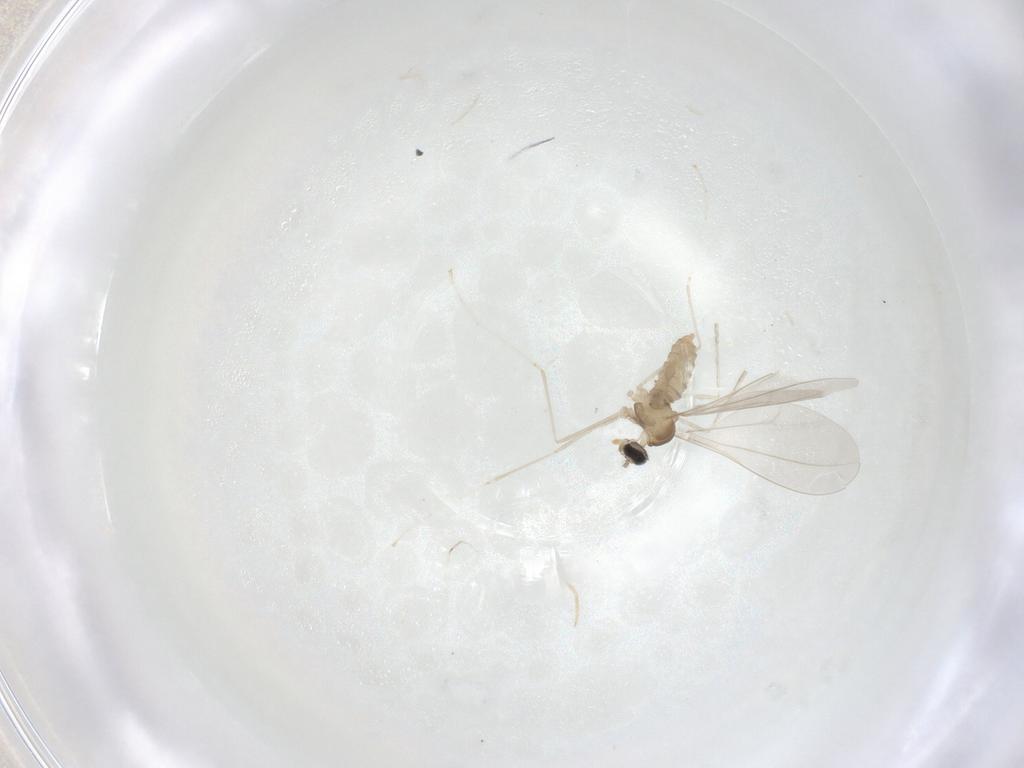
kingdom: Animalia
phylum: Arthropoda
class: Insecta
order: Diptera
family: Cecidomyiidae
